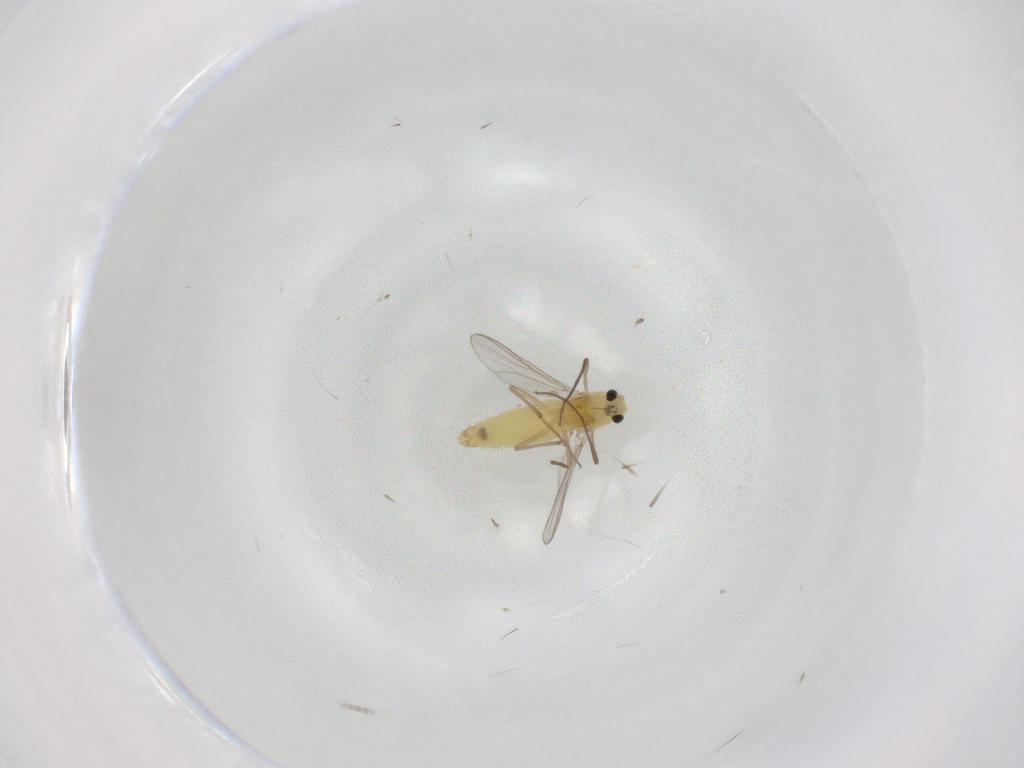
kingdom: Animalia
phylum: Arthropoda
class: Insecta
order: Diptera
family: Chironomidae
